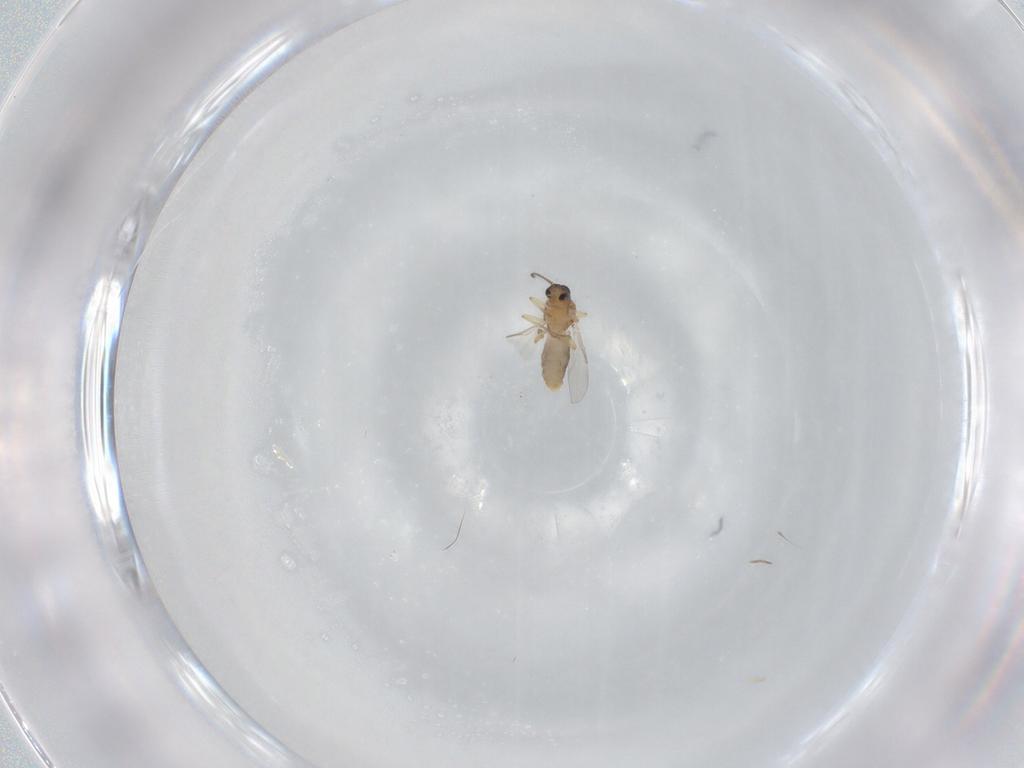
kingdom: Animalia
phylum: Arthropoda
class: Insecta
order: Diptera
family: Ceratopogonidae
